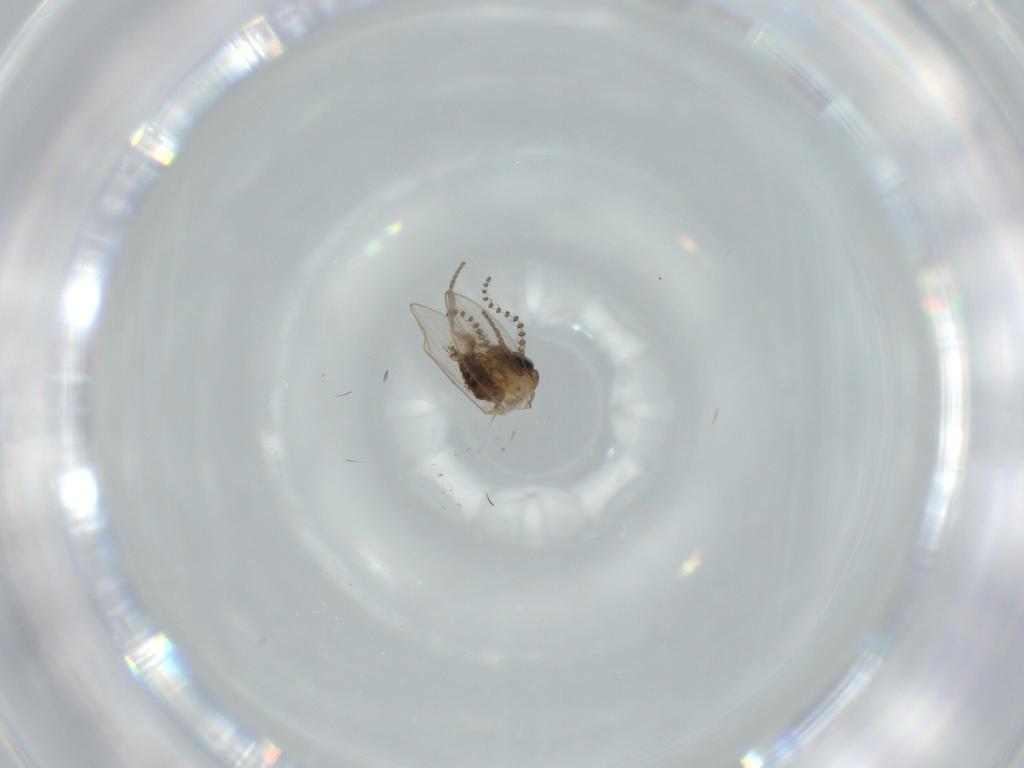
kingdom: Animalia
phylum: Arthropoda
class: Insecta
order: Diptera
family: Psychodidae
